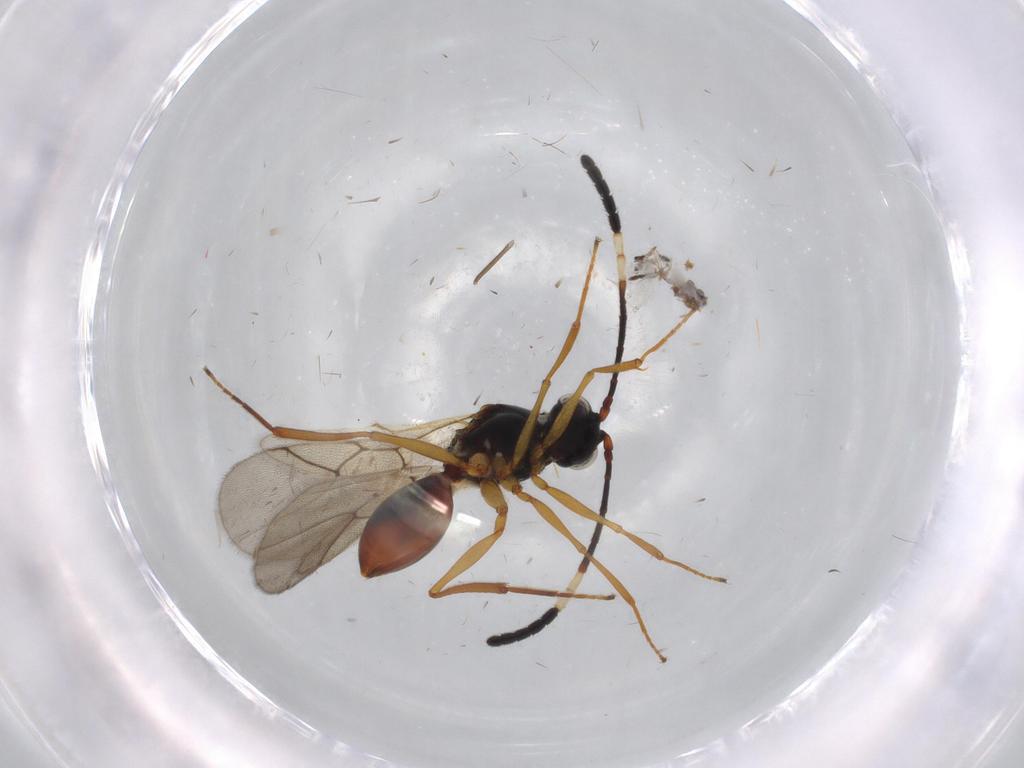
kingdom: Animalia
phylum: Arthropoda
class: Insecta
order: Hymenoptera
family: Figitidae
